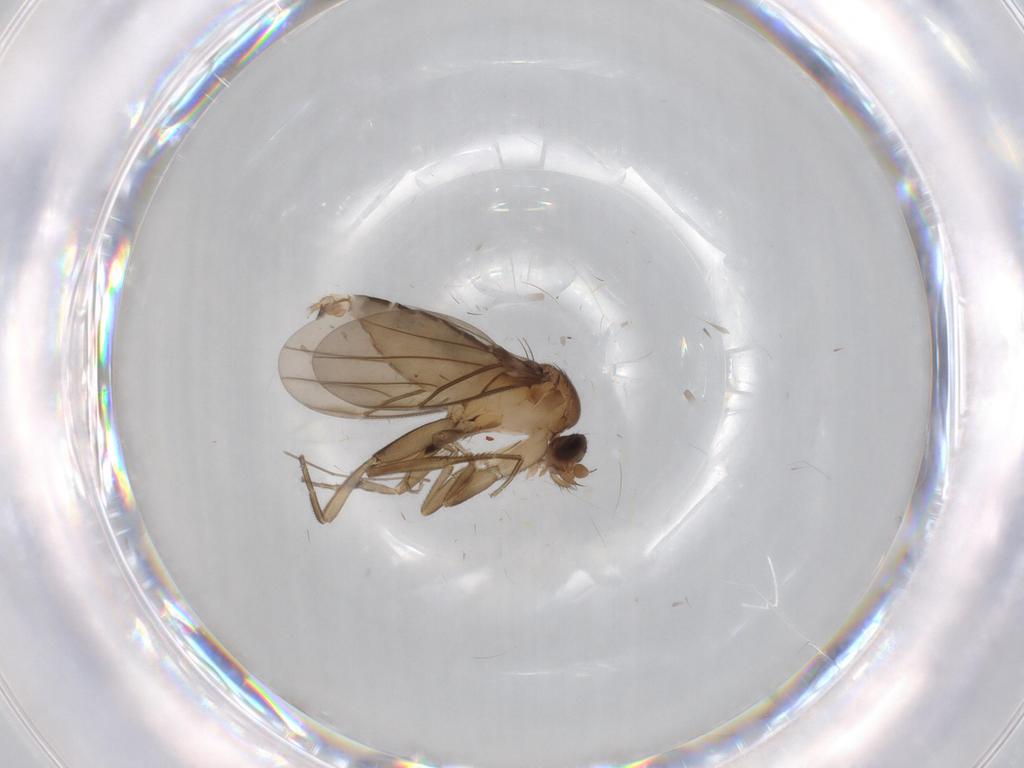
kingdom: Animalia
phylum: Arthropoda
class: Insecta
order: Diptera
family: Phoridae
